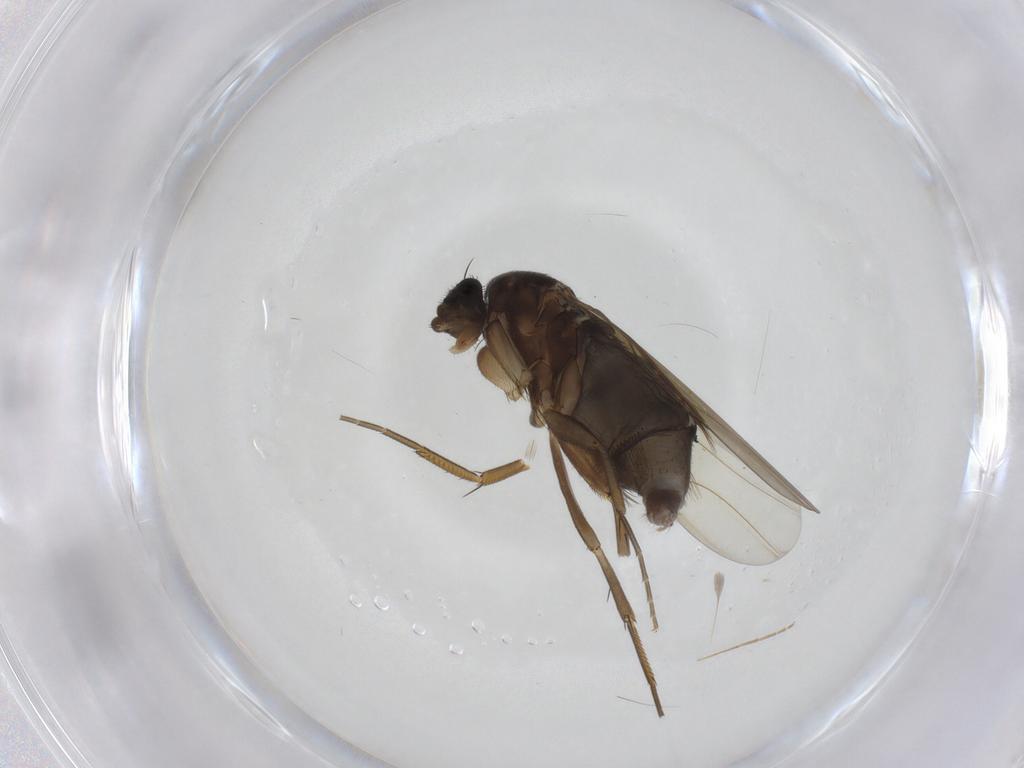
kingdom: Animalia
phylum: Arthropoda
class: Insecta
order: Diptera
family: Phoridae
